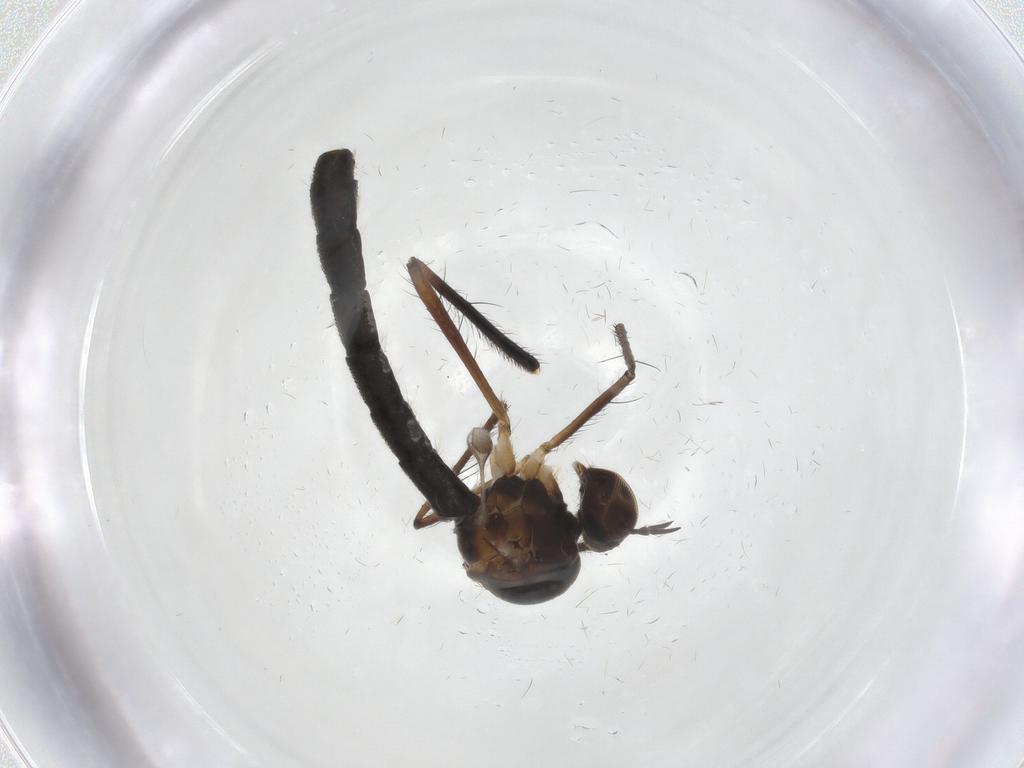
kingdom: Animalia
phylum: Arthropoda
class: Insecta
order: Diptera
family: Hybotidae
